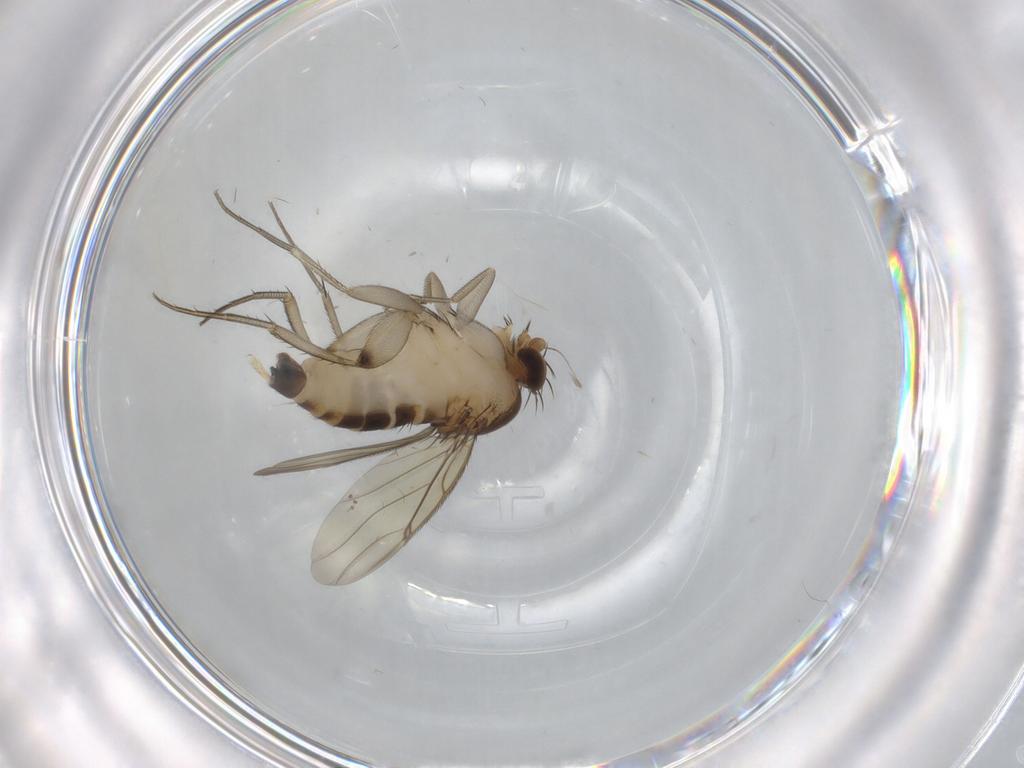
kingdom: Animalia
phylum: Arthropoda
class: Insecta
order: Diptera
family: Phoridae
